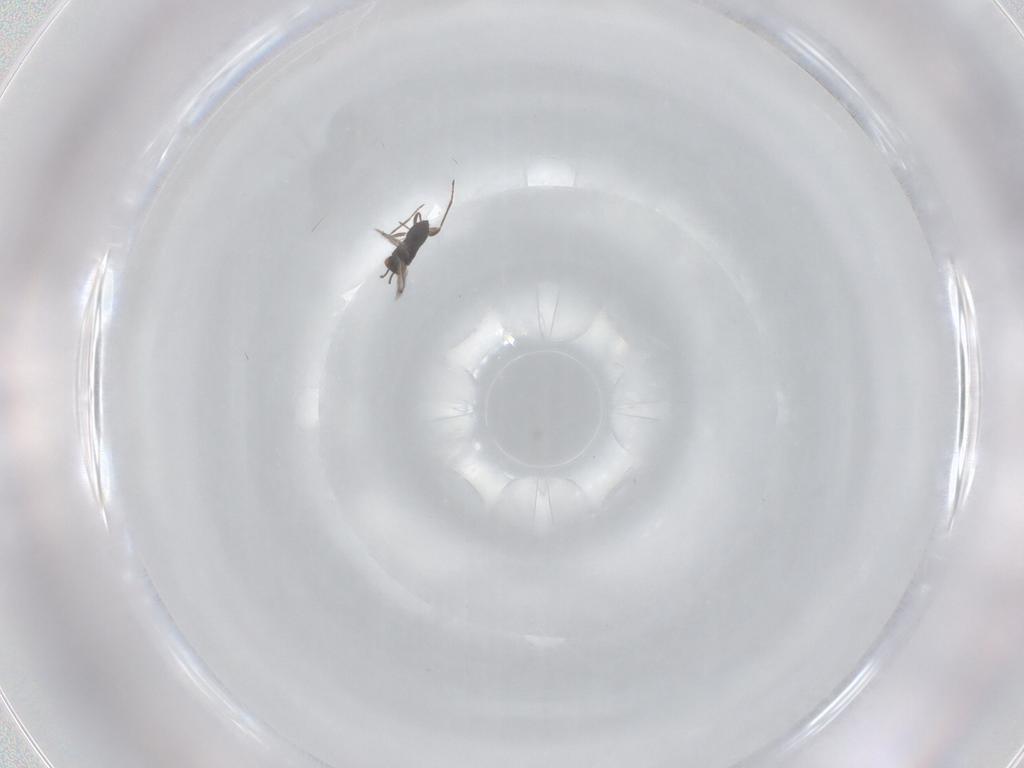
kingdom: Animalia
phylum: Arthropoda
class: Insecta
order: Hymenoptera
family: Mymaridae
